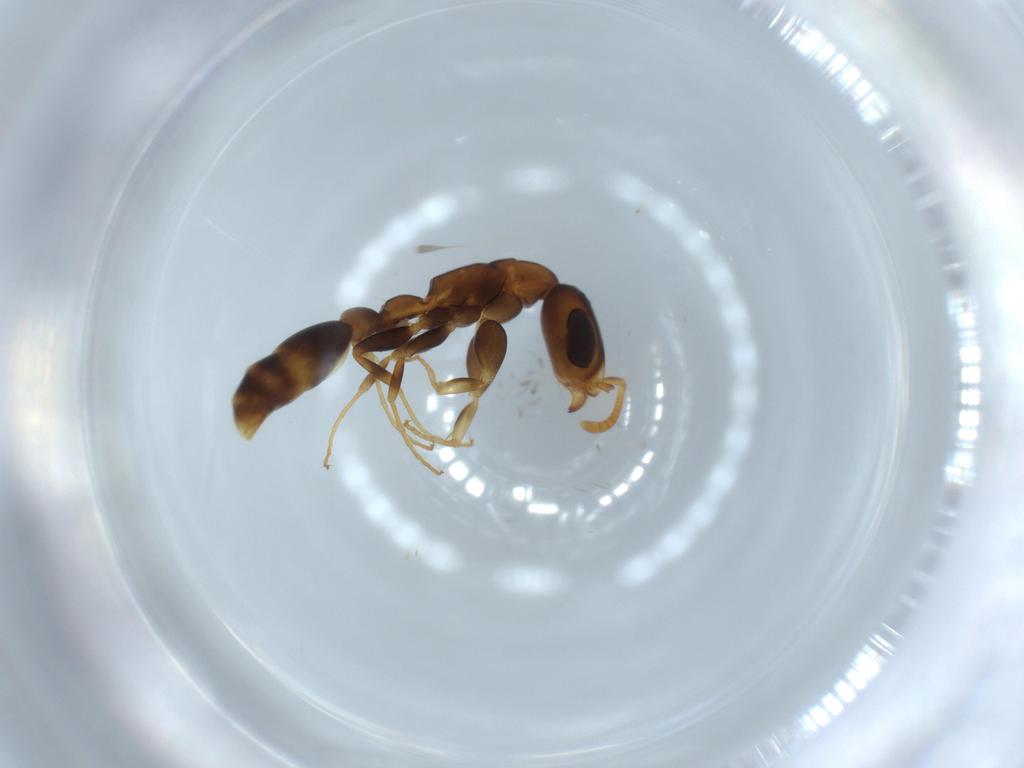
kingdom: Animalia
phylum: Arthropoda
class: Insecta
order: Hymenoptera
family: Formicidae
